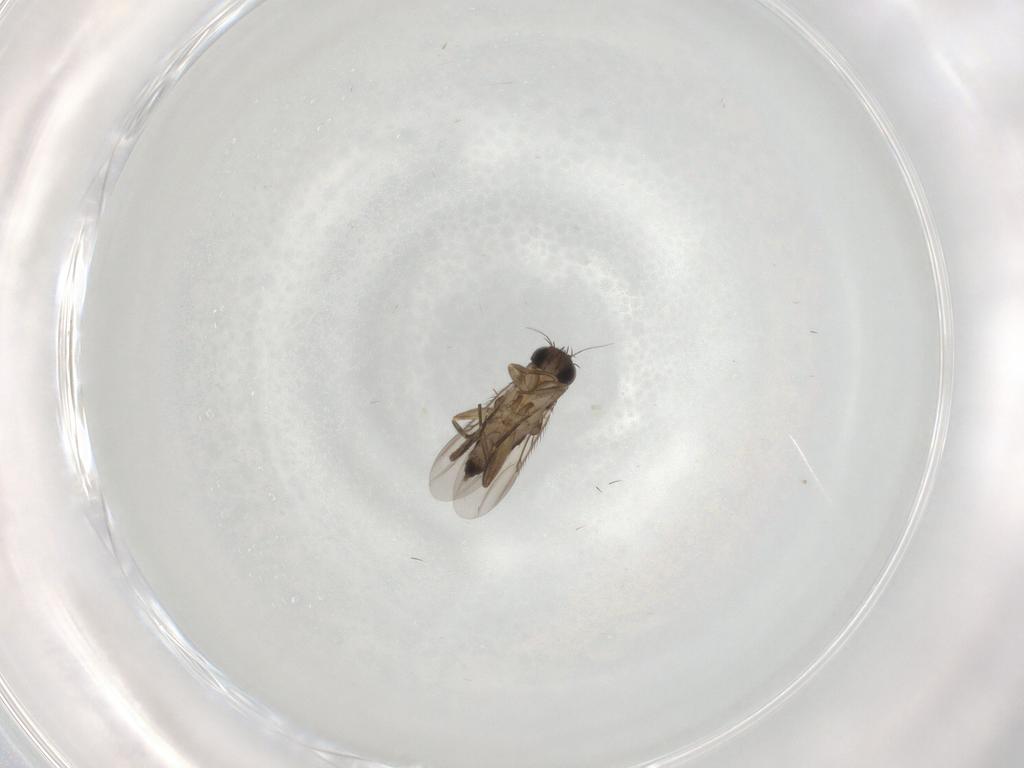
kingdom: Animalia
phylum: Arthropoda
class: Insecta
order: Diptera
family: Phoridae
